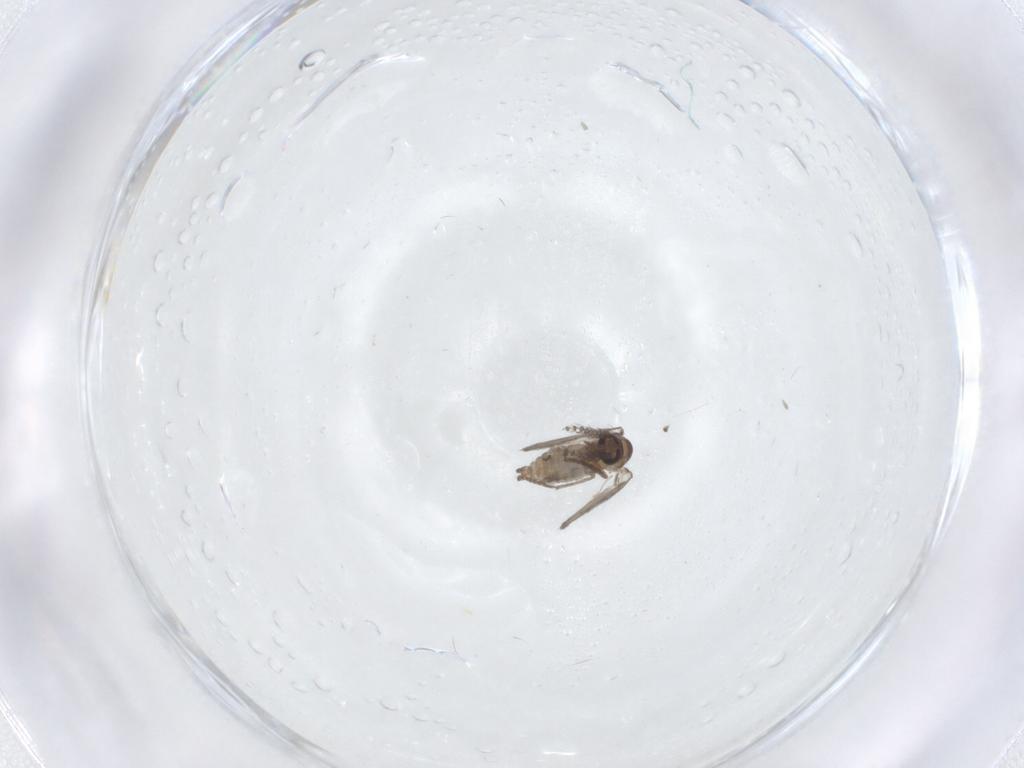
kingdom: Animalia
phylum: Arthropoda
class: Insecta
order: Diptera
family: Psychodidae
